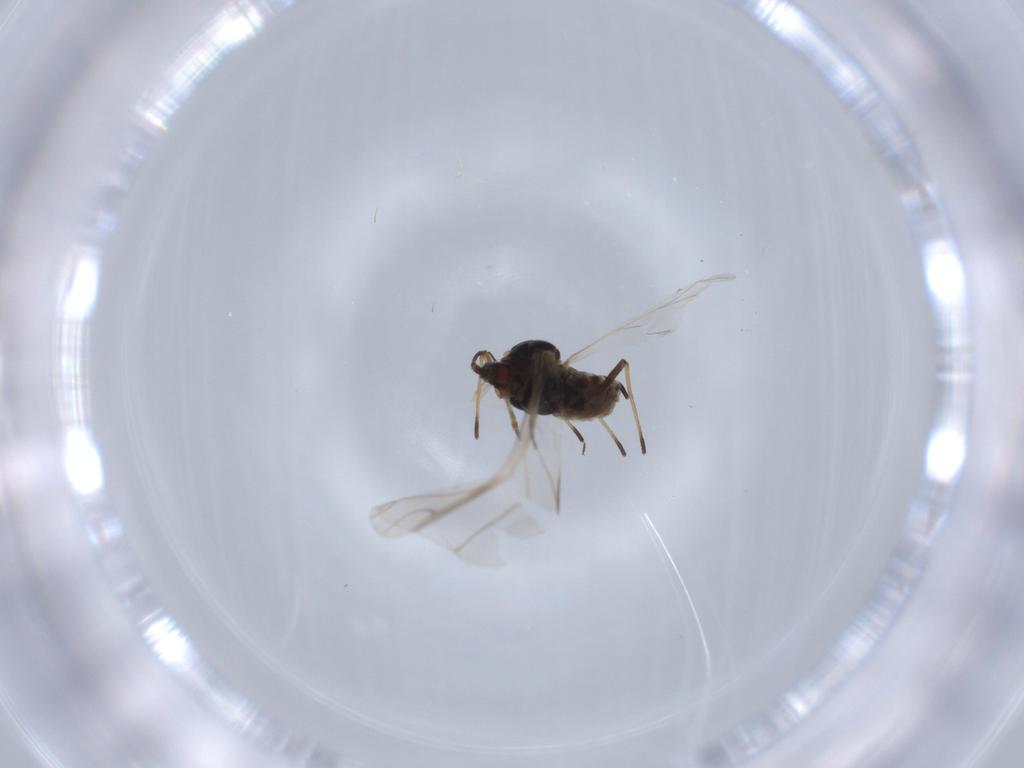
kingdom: Animalia
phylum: Arthropoda
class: Insecta
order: Hemiptera
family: Aphididae
